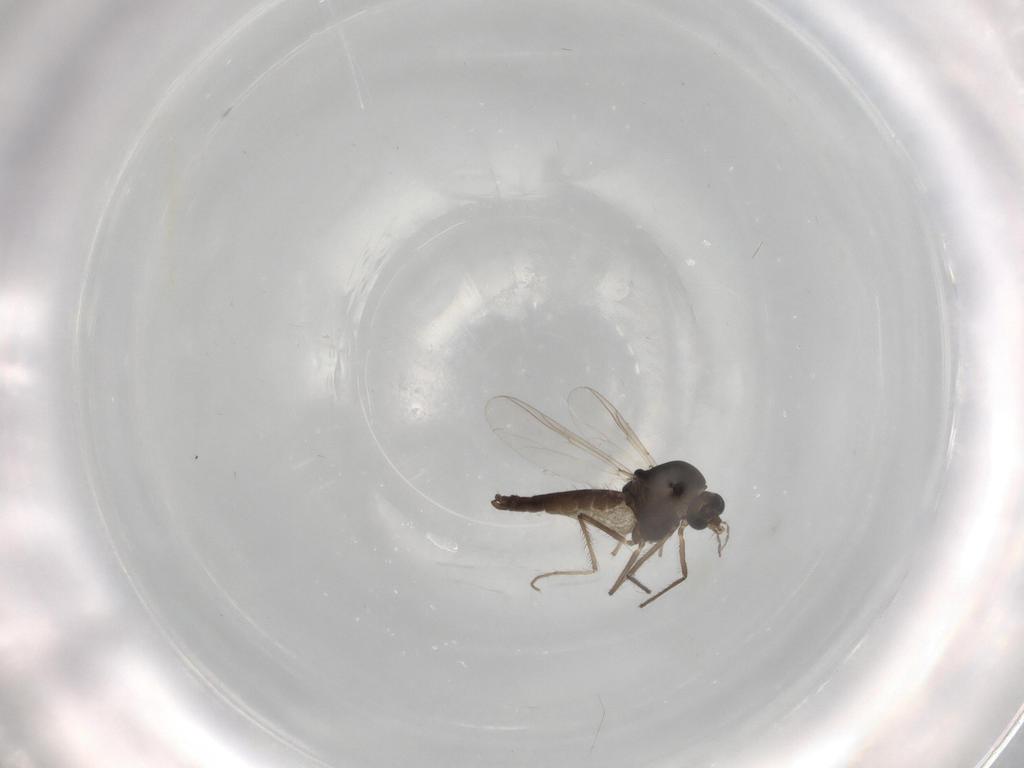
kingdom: Animalia
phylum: Arthropoda
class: Insecta
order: Diptera
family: Chironomidae
